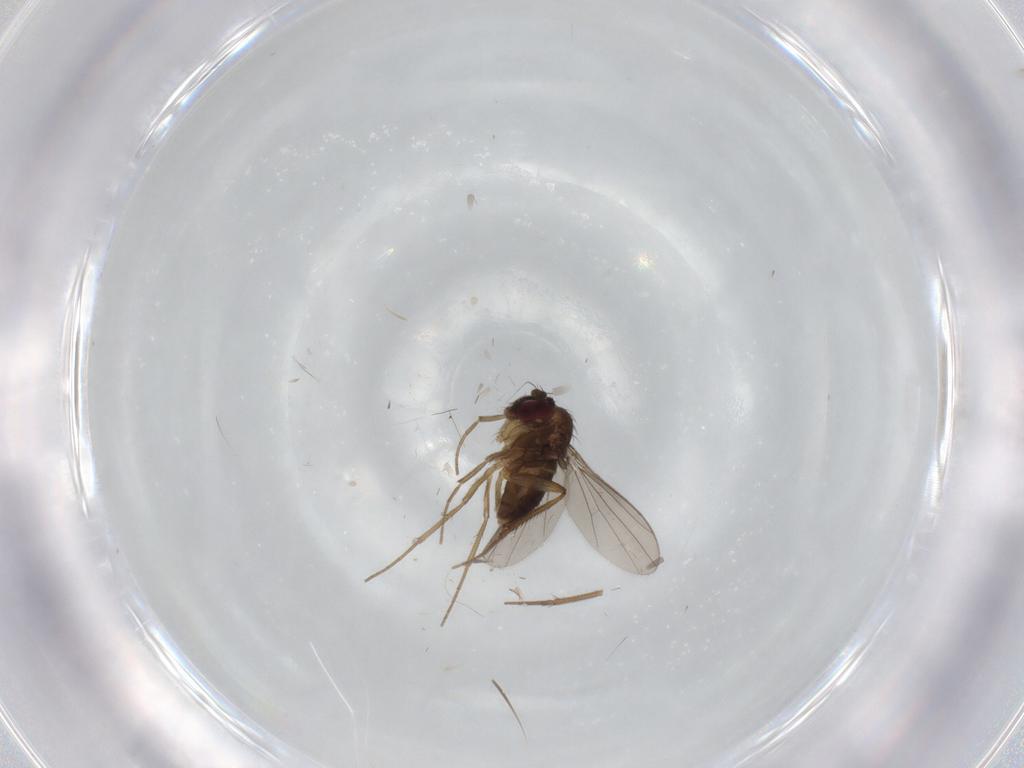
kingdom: Animalia
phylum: Arthropoda
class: Insecta
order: Diptera
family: Dolichopodidae
